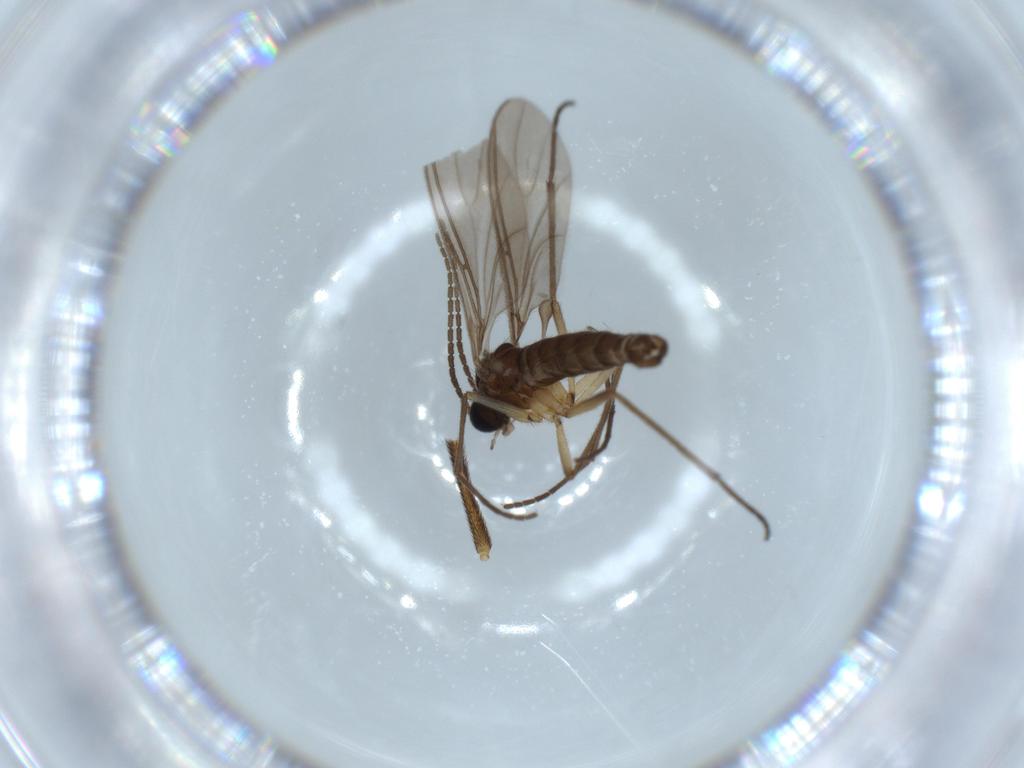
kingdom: Animalia
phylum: Arthropoda
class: Insecta
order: Diptera
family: Sciaridae
